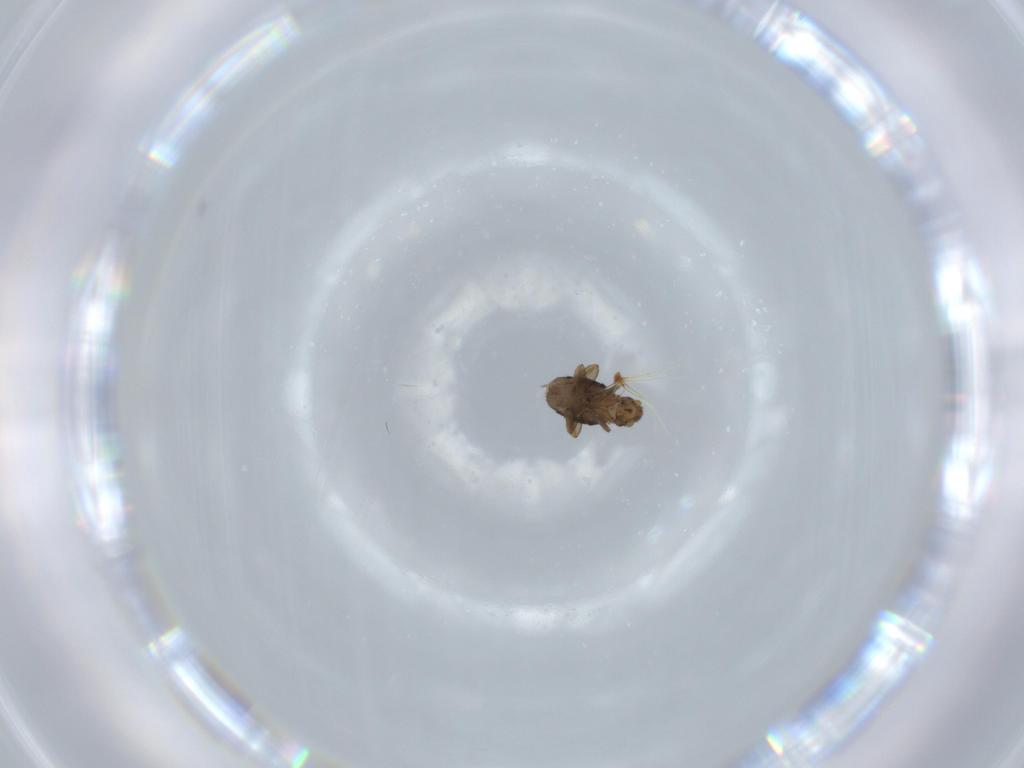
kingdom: Animalia
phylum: Arthropoda
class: Insecta
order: Diptera
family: Phoridae
